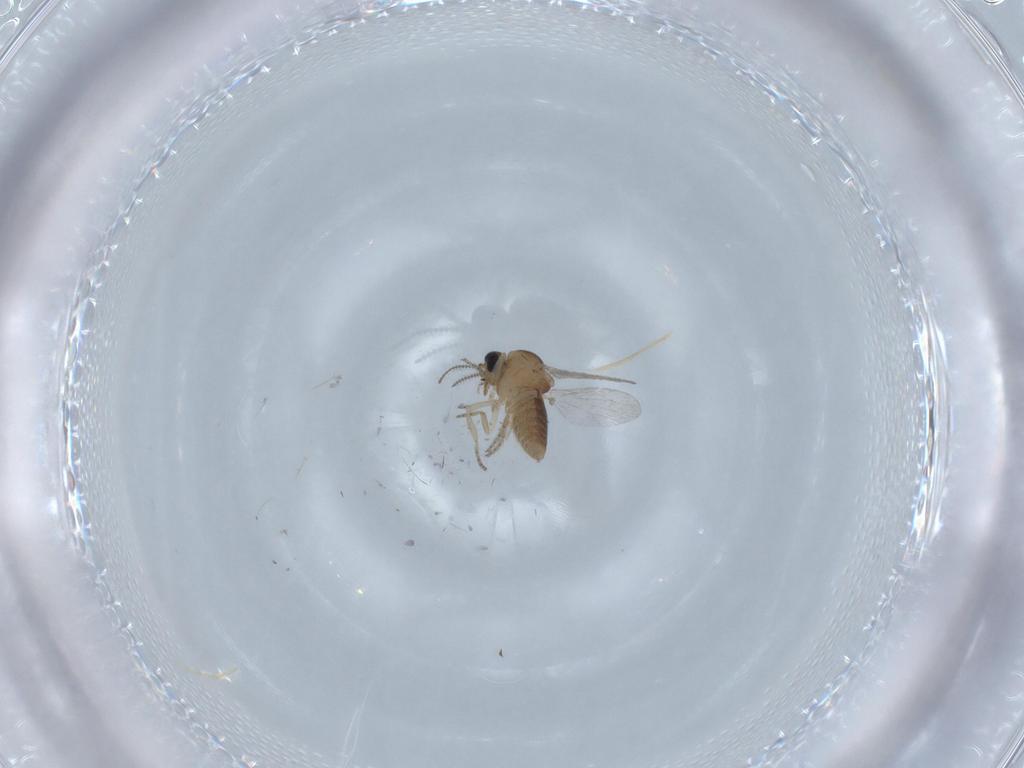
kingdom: Animalia
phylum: Arthropoda
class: Insecta
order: Diptera
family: Ceratopogonidae
